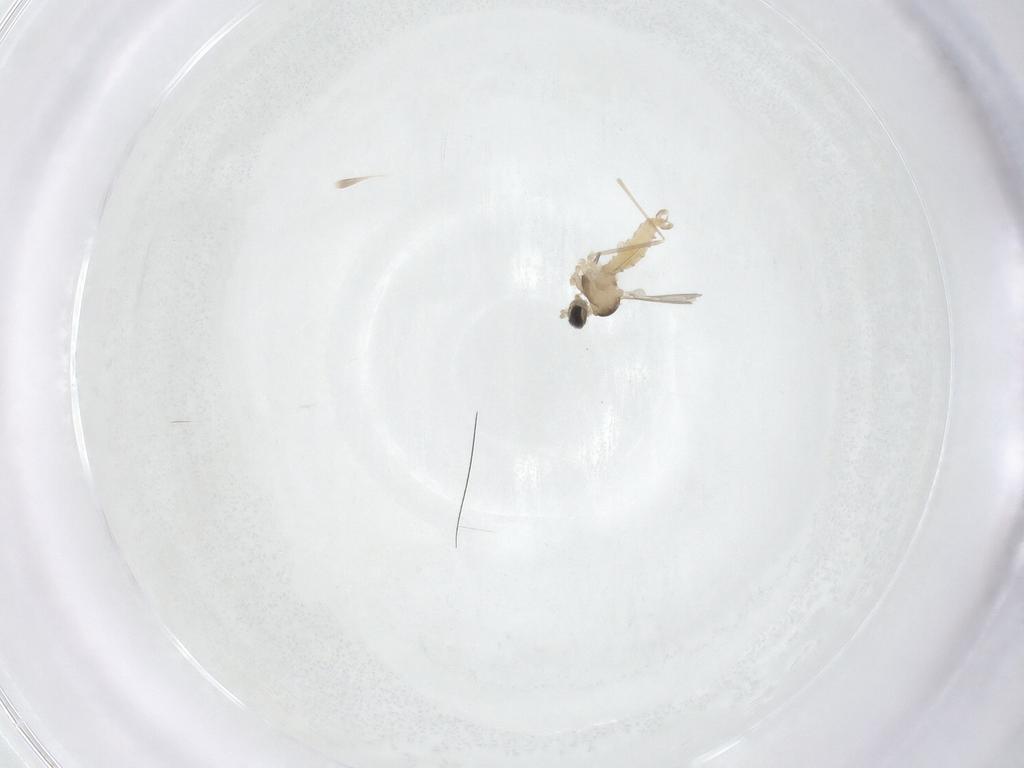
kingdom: Animalia
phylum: Arthropoda
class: Insecta
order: Diptera
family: Cecidomyiidae
